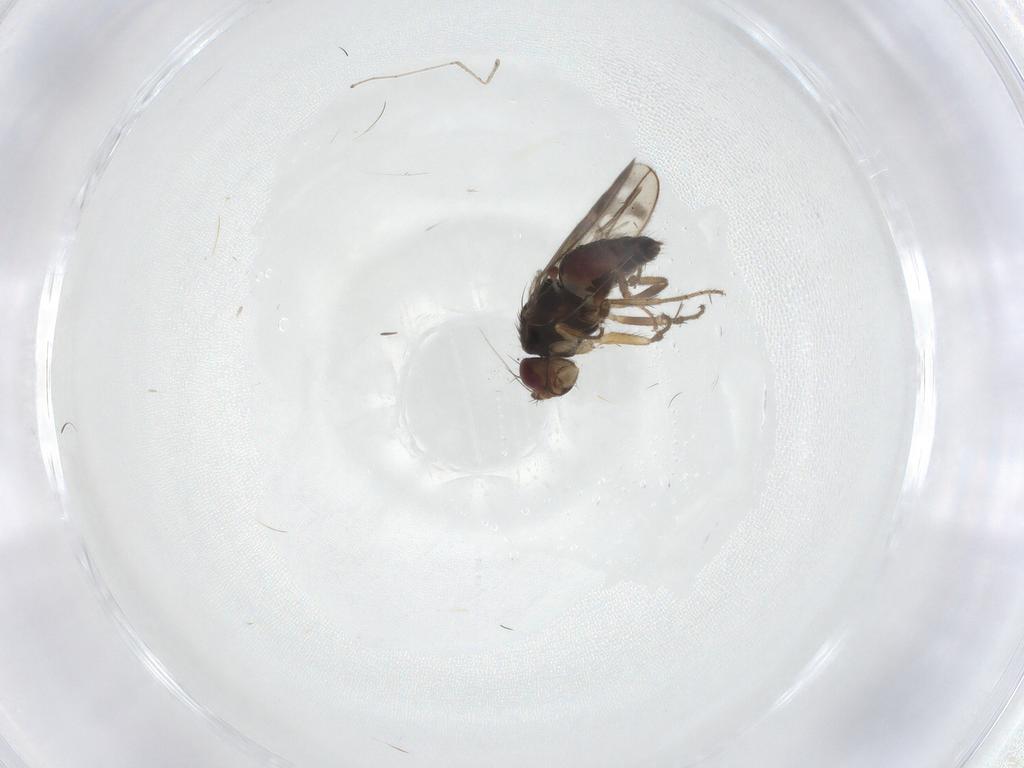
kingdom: Animalia
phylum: Arthropoda
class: Insecta
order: Diptera
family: Sphaeroceridae
